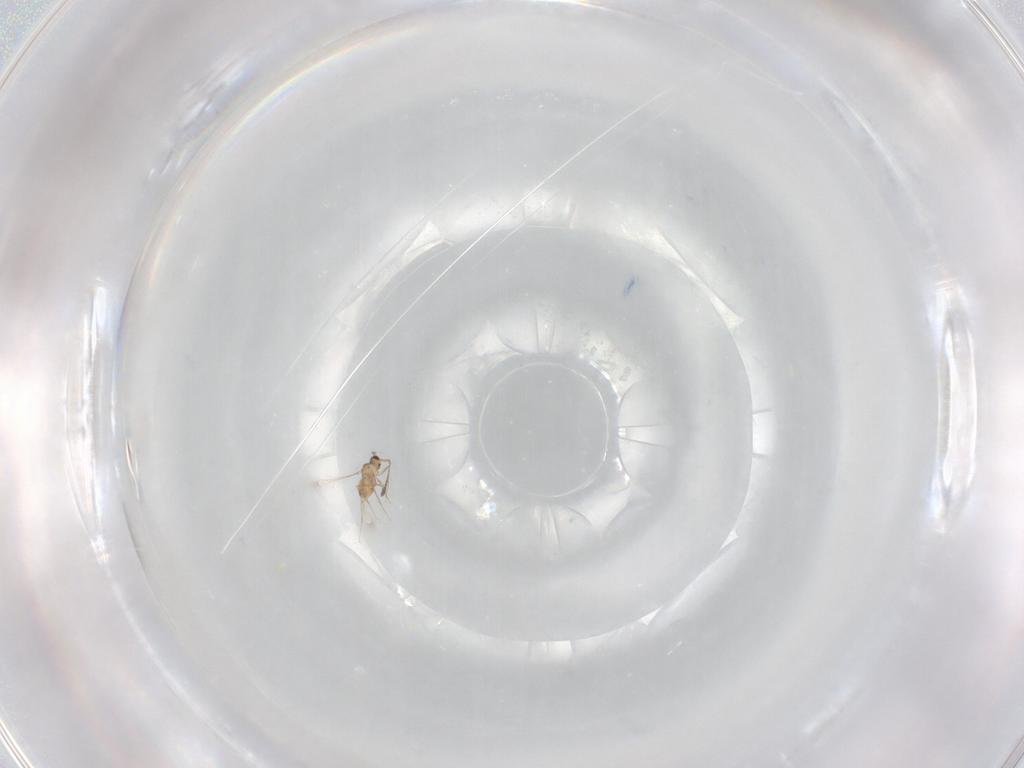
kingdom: Animalia
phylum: Arthropoda
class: Insecta
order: Hymenoptera
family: Mymaridae
